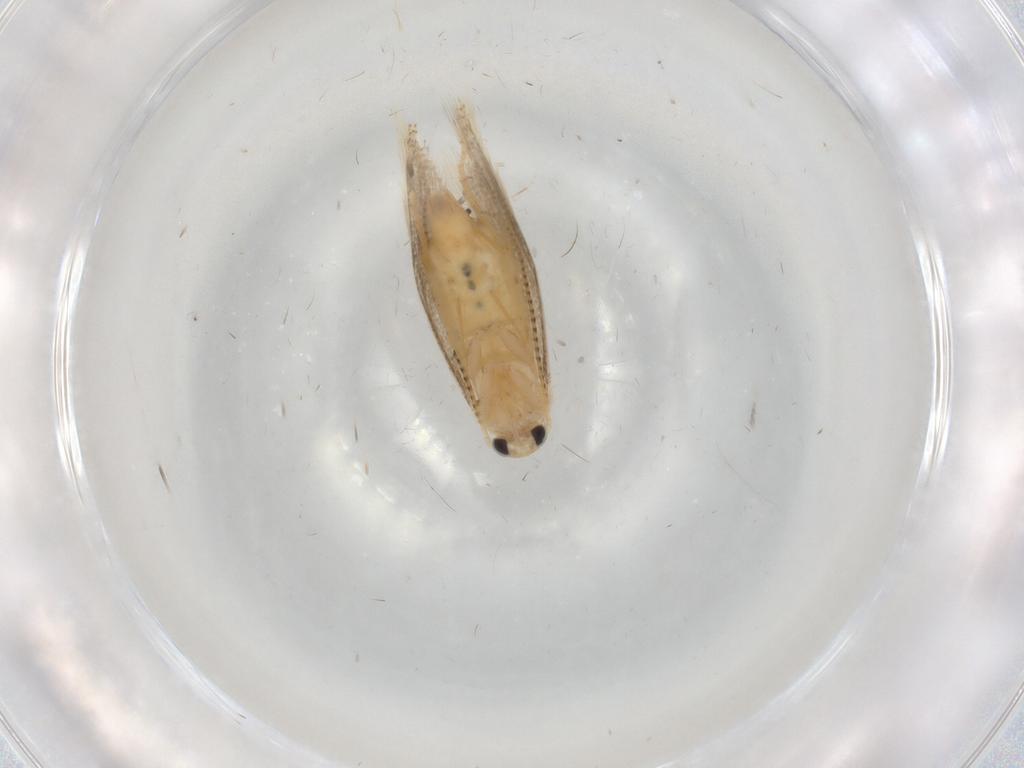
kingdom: Animalia
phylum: Arthropoda
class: Insecta
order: Lepidoptera
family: Bucculatricidae
